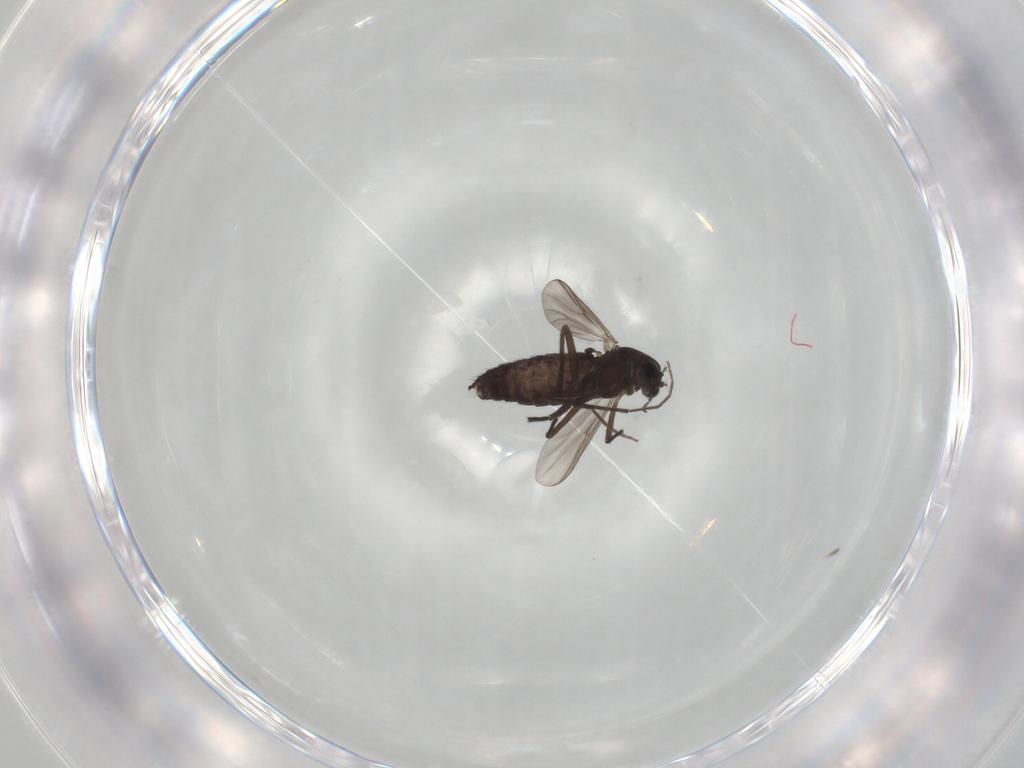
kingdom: Animalia
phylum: Arthropoda
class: Insecta
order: Diptera
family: Chironomidae
